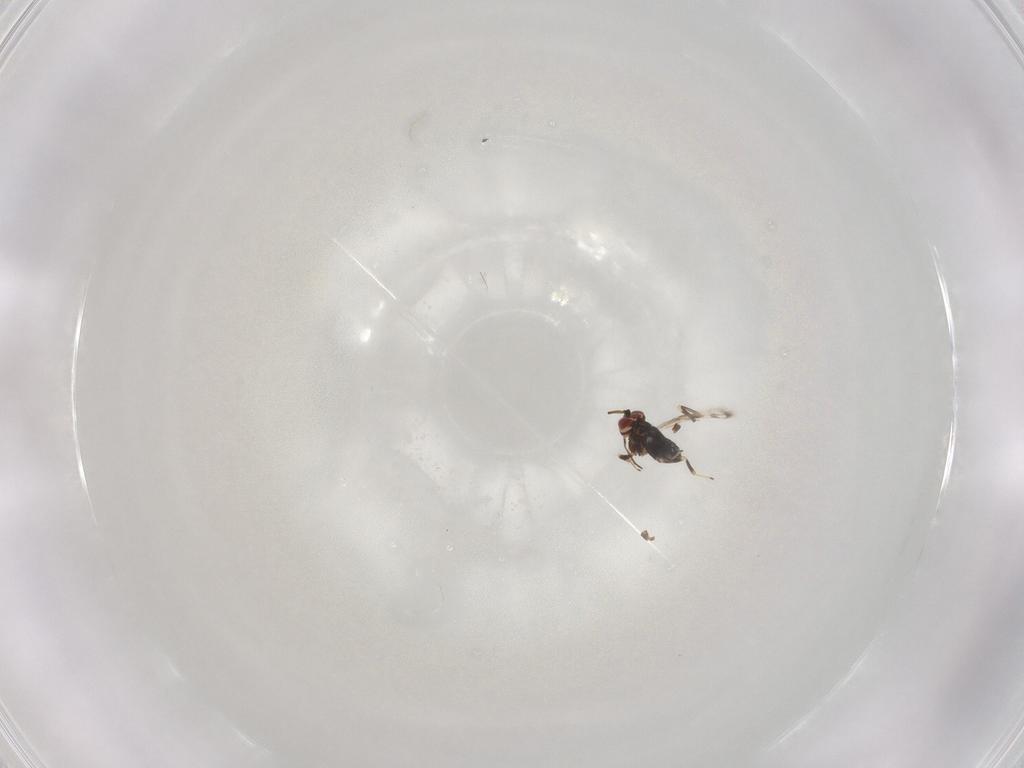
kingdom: Animalia
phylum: Arthropoda
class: Insecta
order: Hymenoptera
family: Azotidae
